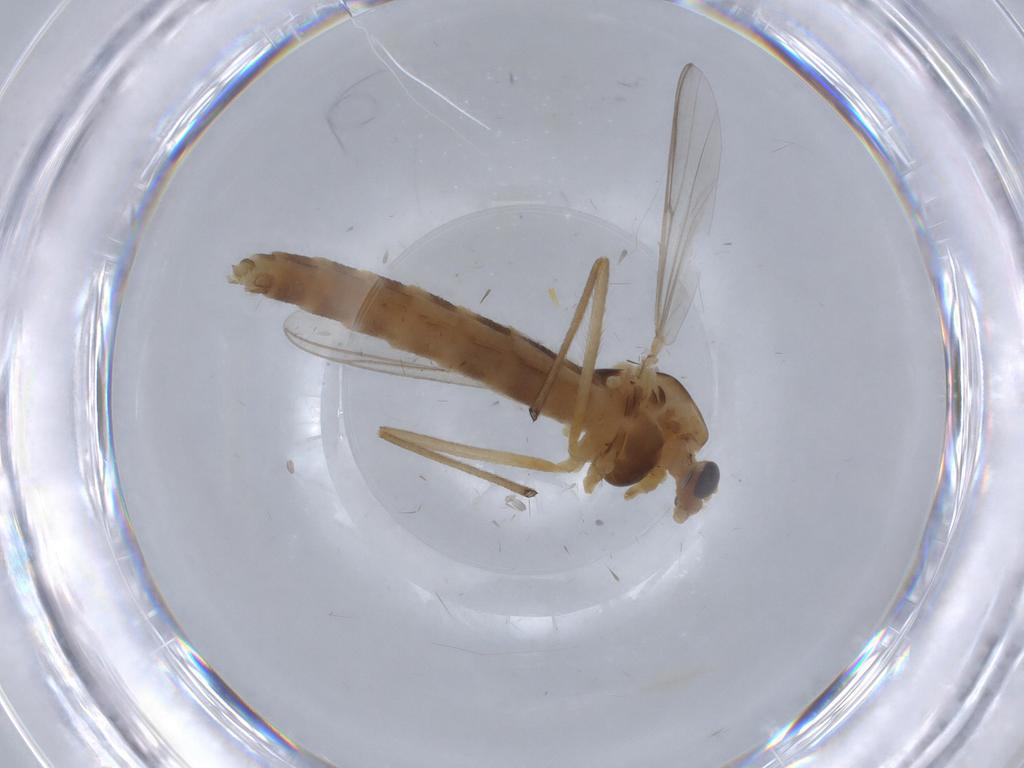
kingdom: Animalia
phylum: Arthropoda
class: Insecta
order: Diptera
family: Chironomidae
